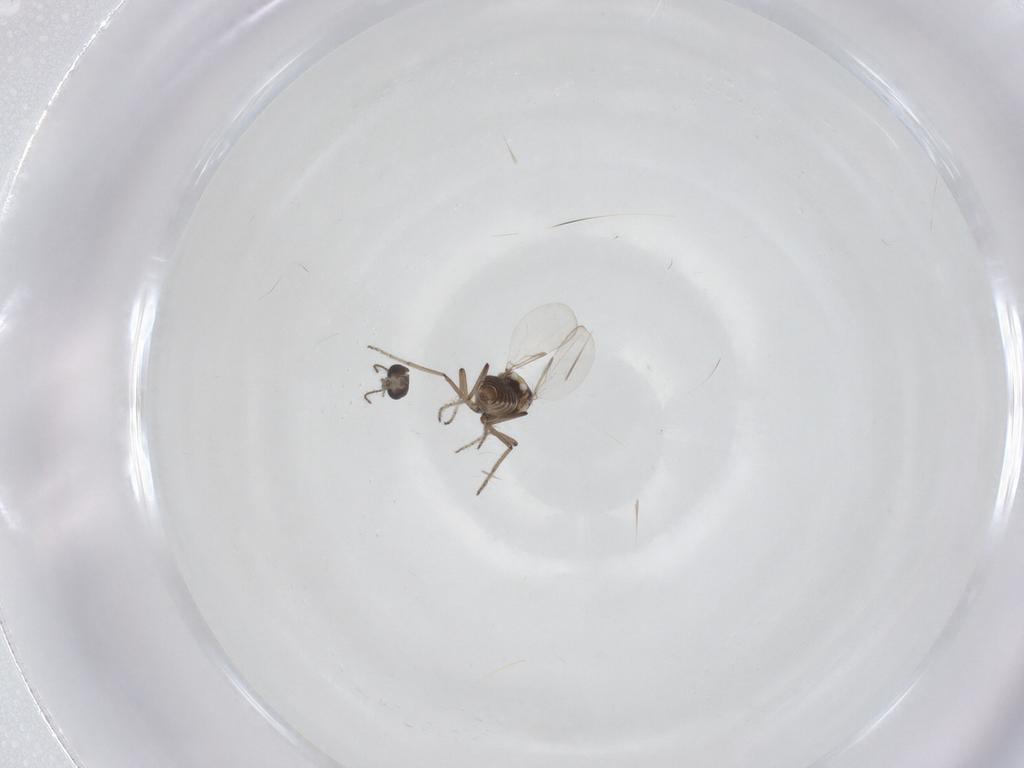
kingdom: Animalia
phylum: Arthropoda
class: Insecta
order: Diptera
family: Ceratopogonidae
